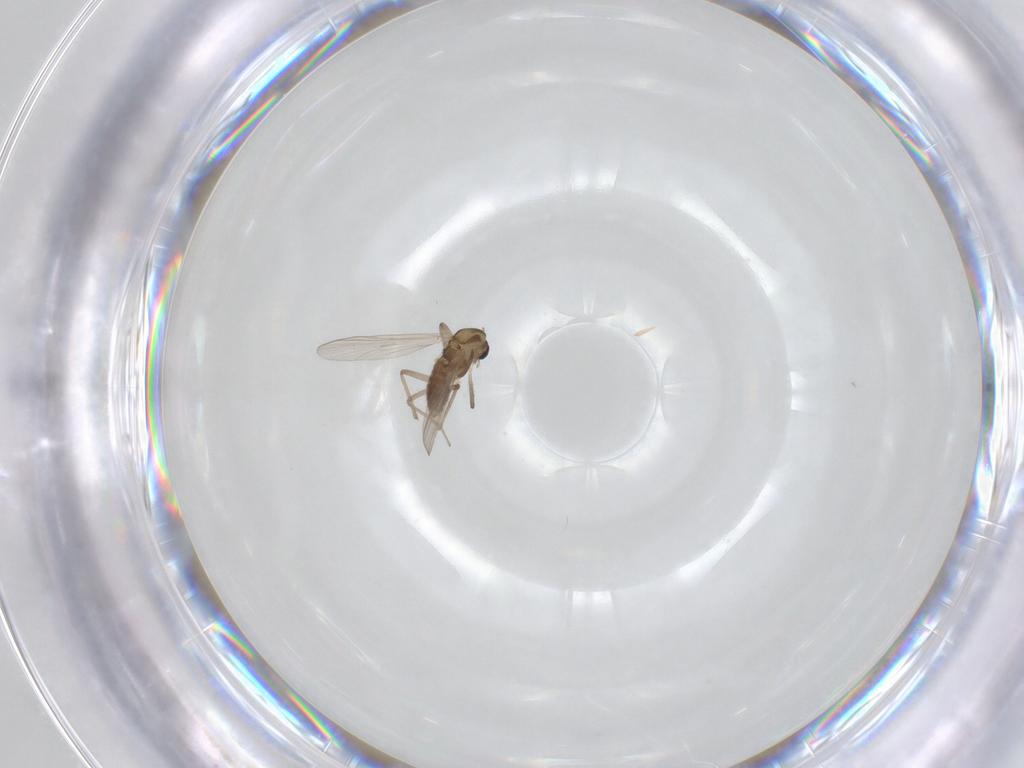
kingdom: Animalia
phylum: Arthropoda
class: Insecta
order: Diptera
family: Chironomidae
